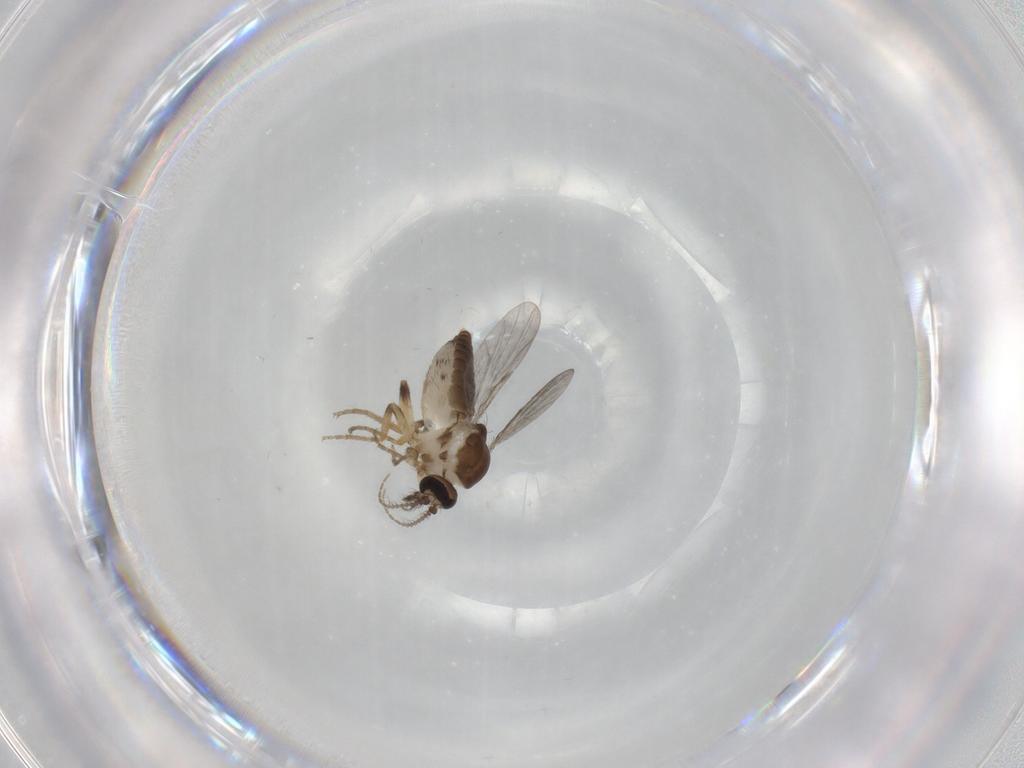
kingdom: Animalia
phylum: Arthropoda
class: Insecta
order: Diptera
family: Ceratopogonidae
